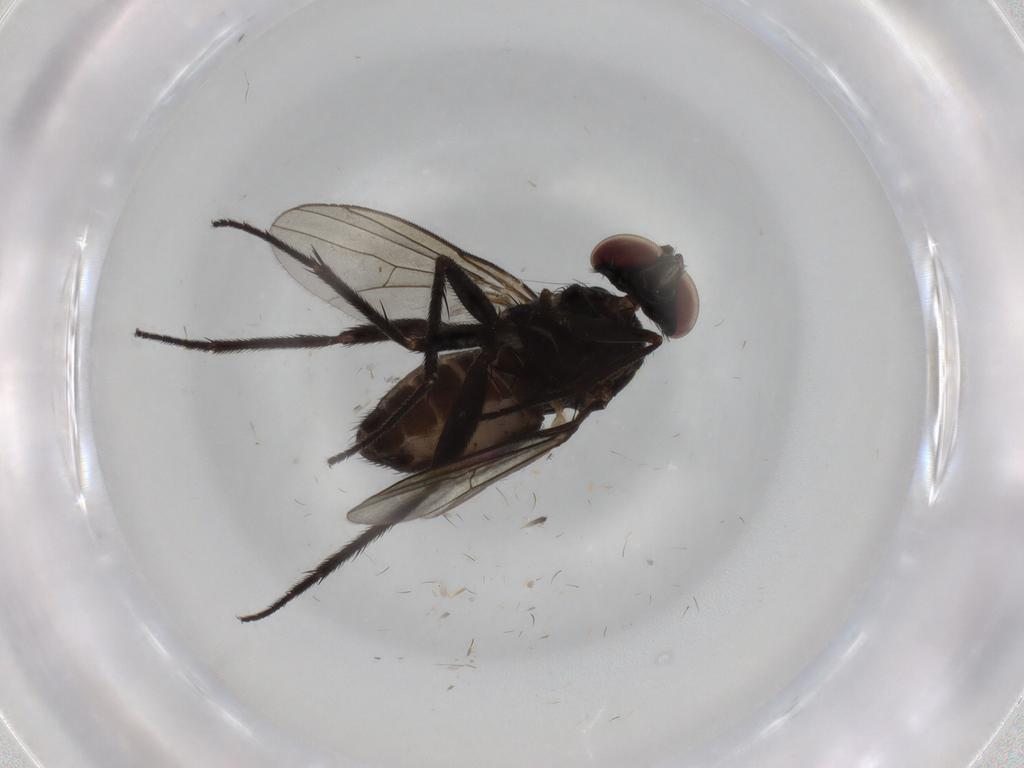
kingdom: Animalia
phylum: Arthropoda
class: Insecta
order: Diptera
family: Dolichopodidae
